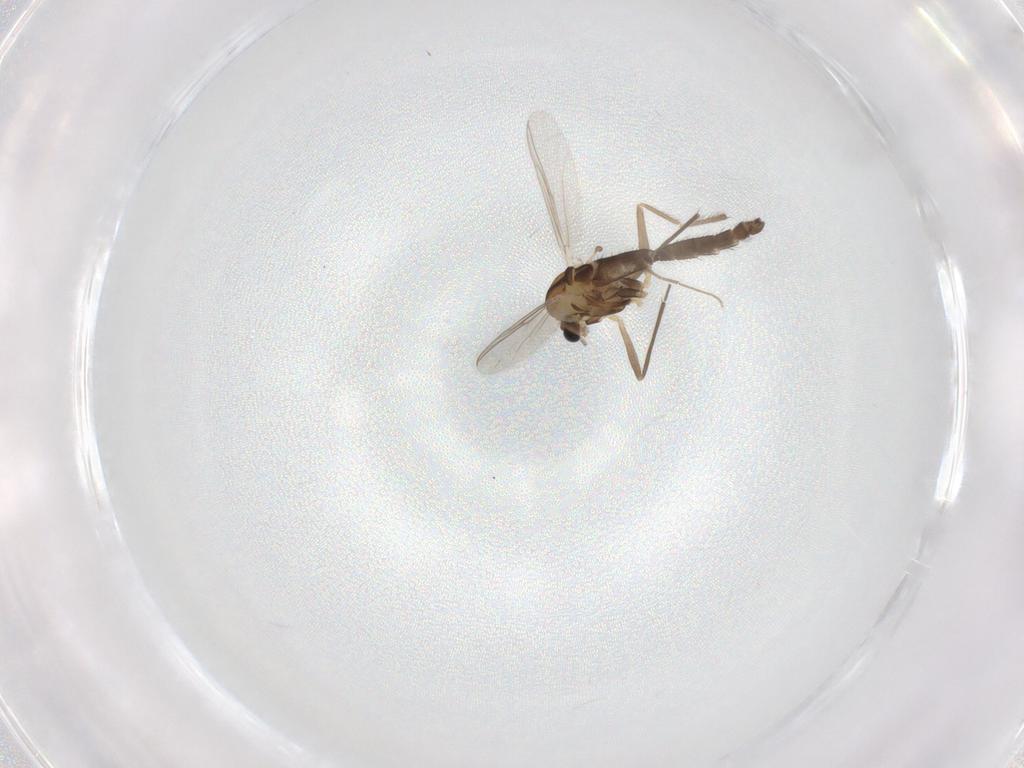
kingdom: Animalia
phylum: Arthropoda
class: Insecta
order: Diptera
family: Chironomidae
